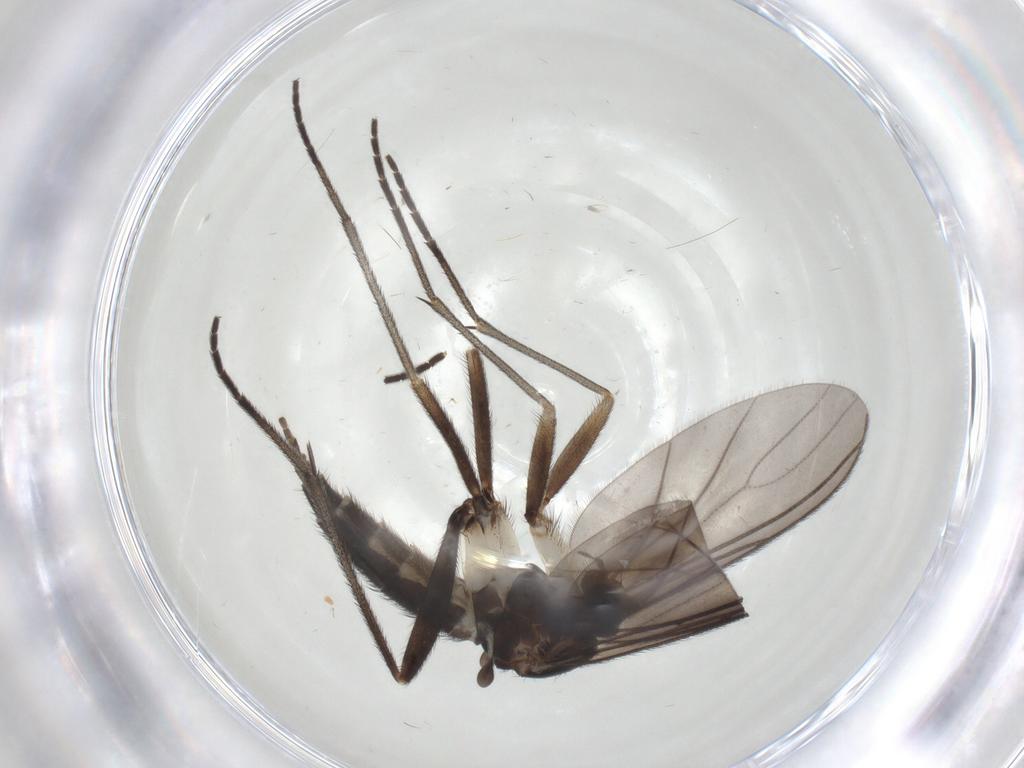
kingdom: Animalia
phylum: Arthropoda
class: Insecta
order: Diptera
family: Sciaridae
